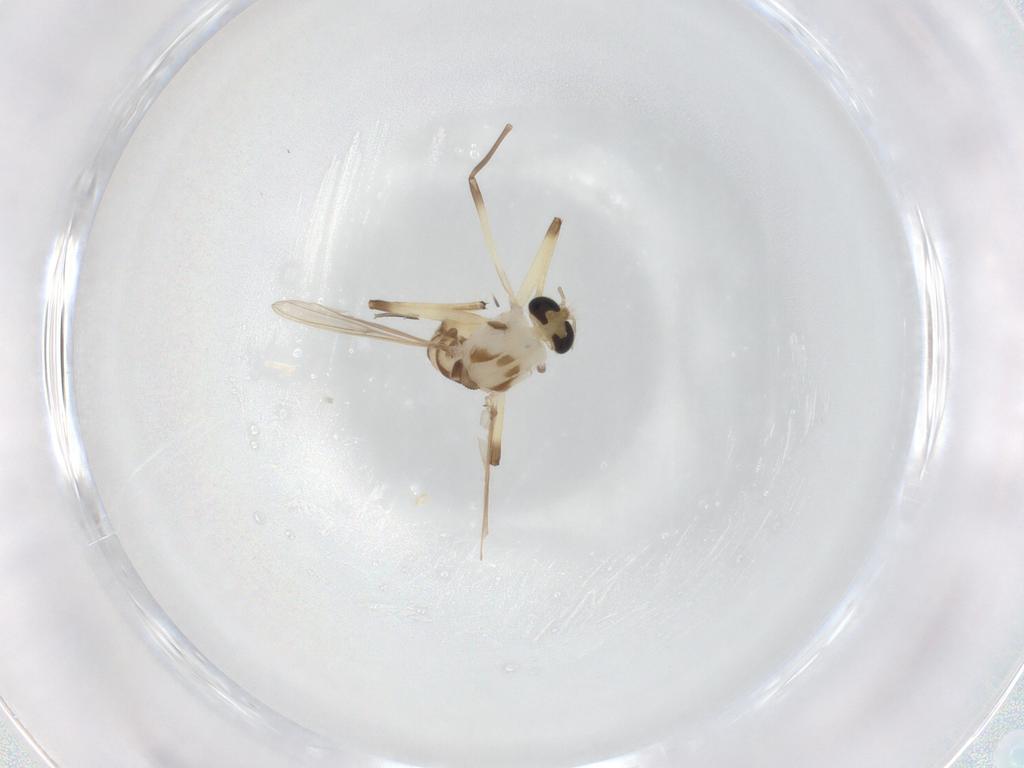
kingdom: Animalia
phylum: Arthropoda
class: Insecta
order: Diptera
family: Chironomidae
